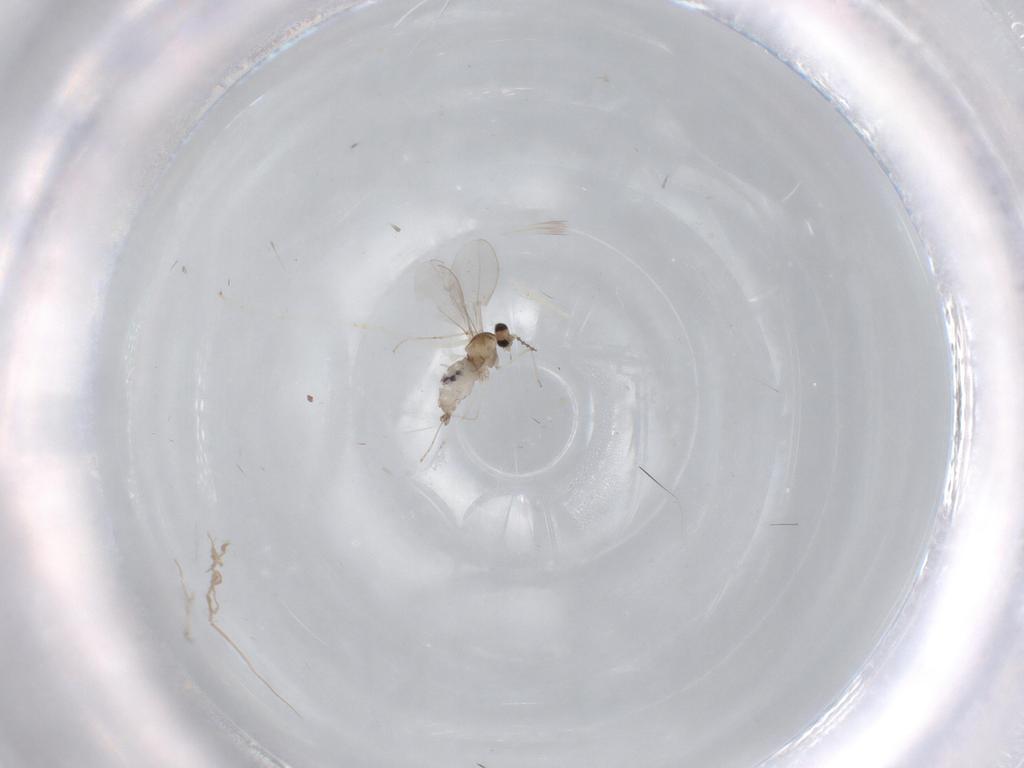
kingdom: Animalia
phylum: Arthropoda
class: Insecta
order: Diptera
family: Cecidomyiidae
